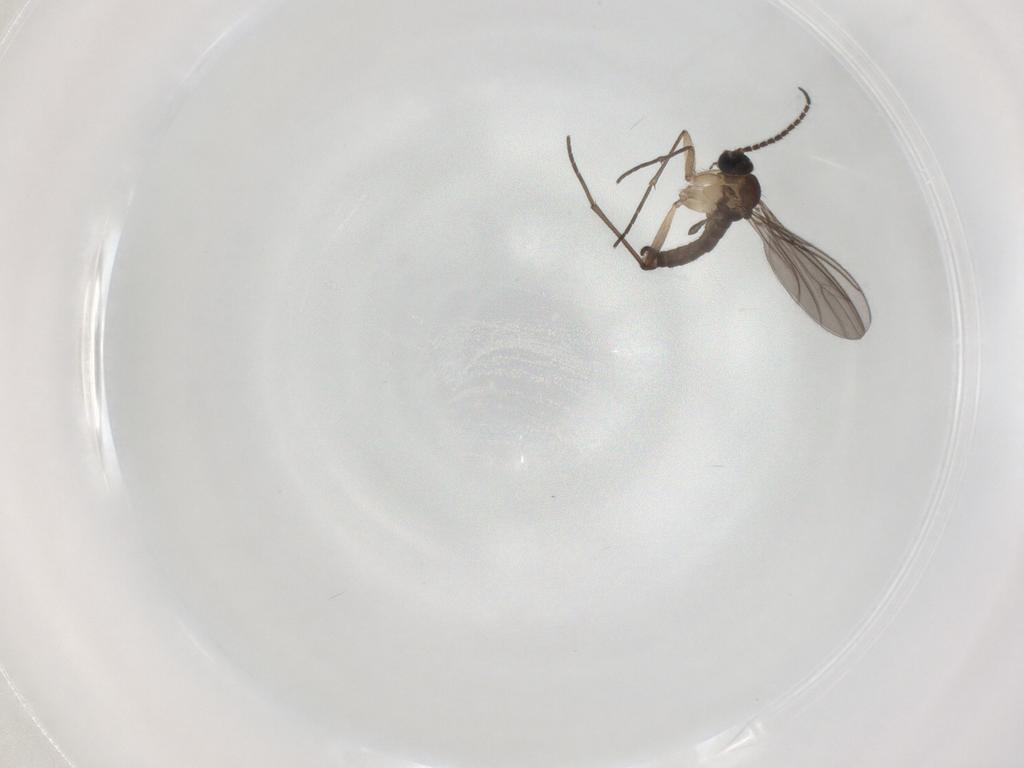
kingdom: Animalia
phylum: Arthropoda
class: Insecta
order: Diptera
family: Sciaridae
